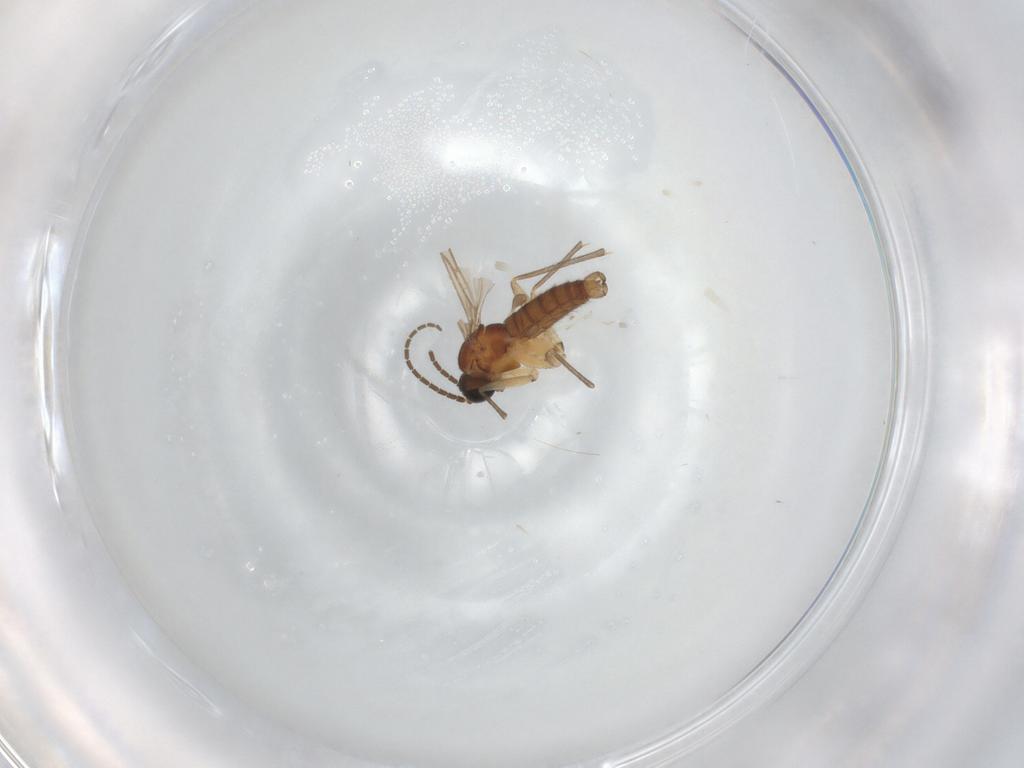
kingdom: Animalia
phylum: Arthropoda
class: Insecta
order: Diptera
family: Sciaridae
